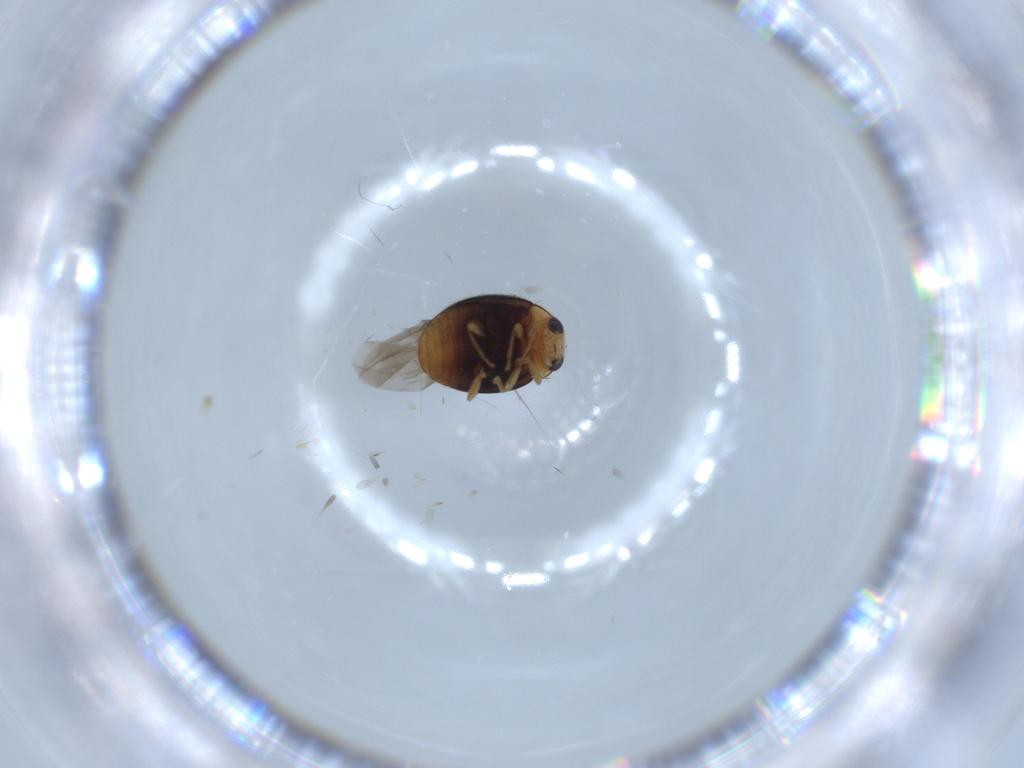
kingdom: Animalia
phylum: Arthropoda
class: Insecta
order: Coleoptera
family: Coccinellidae
